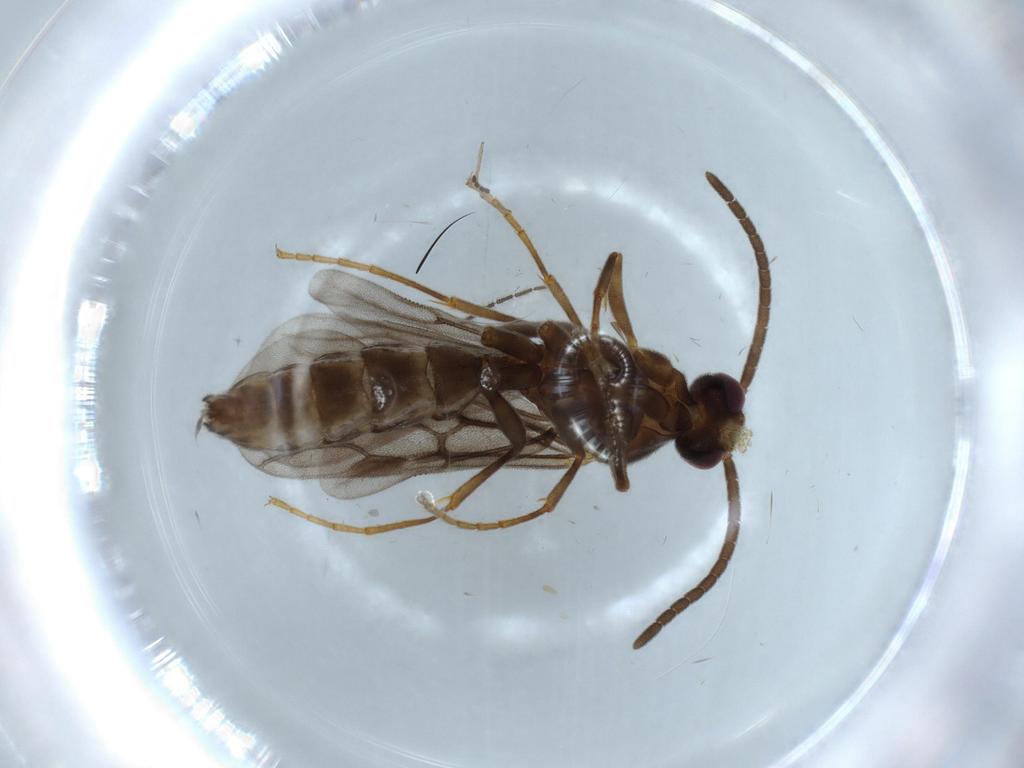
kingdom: Animalia
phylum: Arthropoda
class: Insecta
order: Hymenoptera
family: Formicidae
